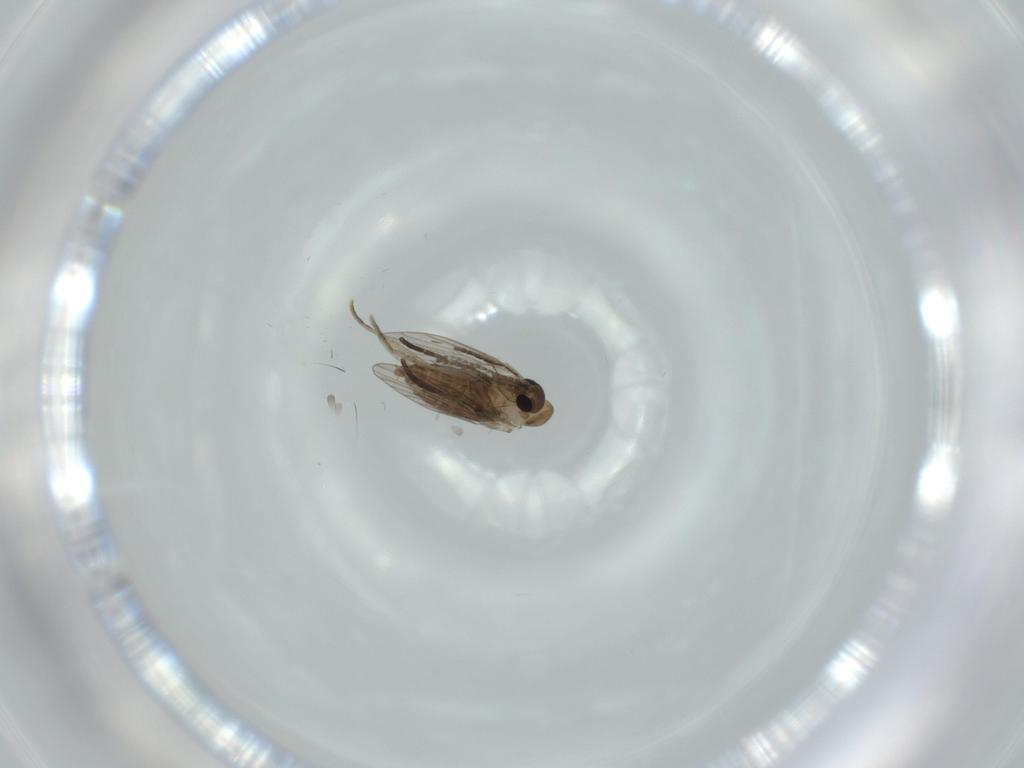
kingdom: Animalia
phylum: Arthropoda
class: Insecta
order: Diptera
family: Psychodidae
